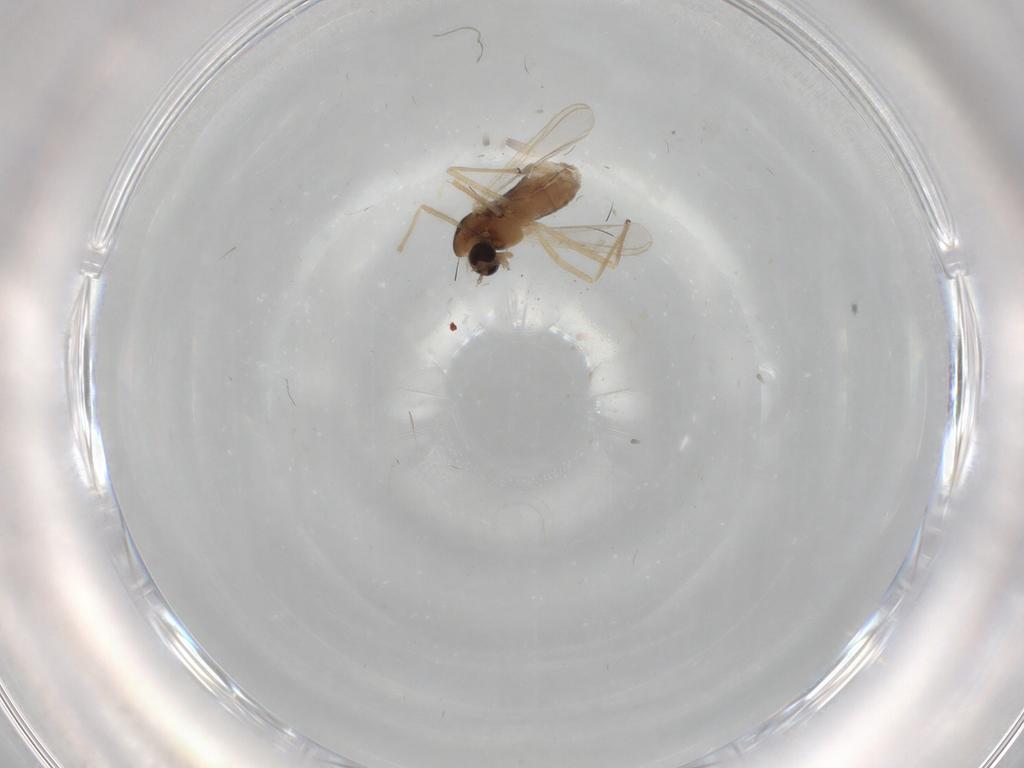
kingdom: Animalia
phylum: Arthropoda
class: Insecta
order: Diptera
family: Chironomidae
